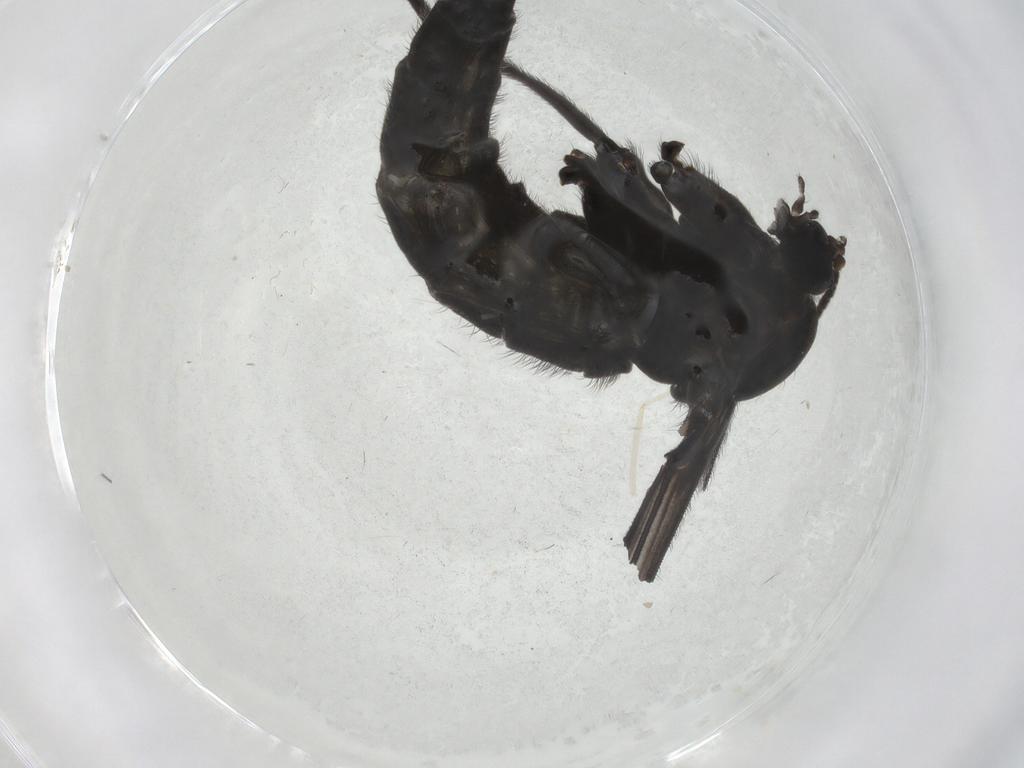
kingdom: Animalia
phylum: Arthropoda
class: Insecta
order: Diptera
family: Sciaridae
